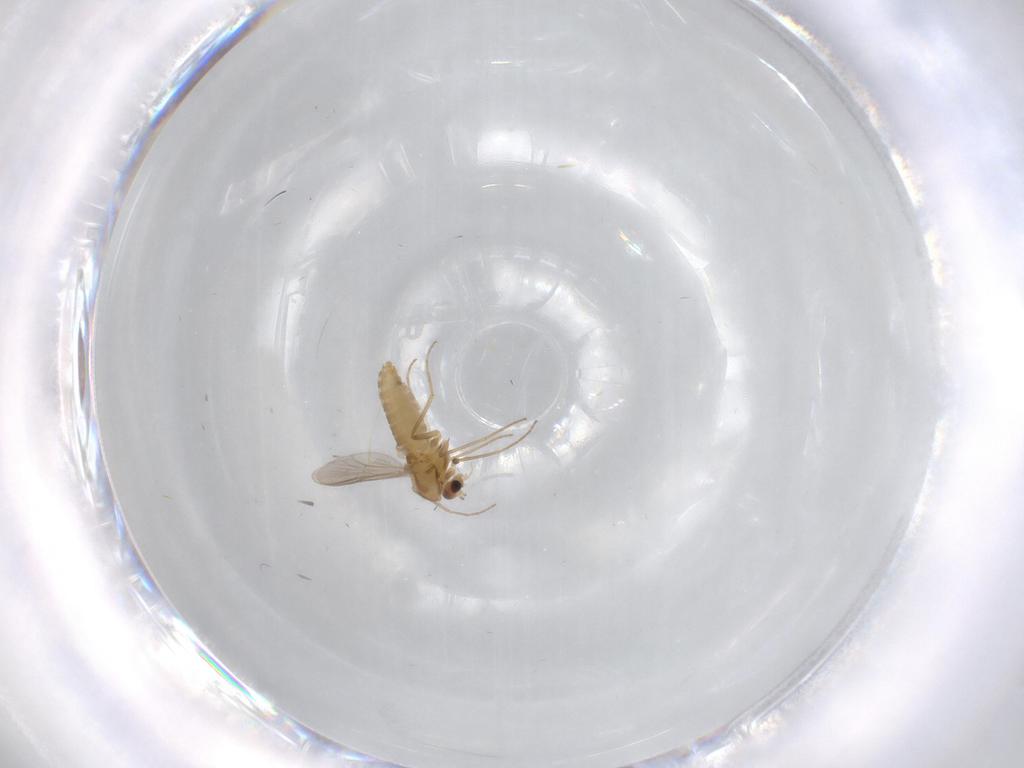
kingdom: Animalia
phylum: Arthropoda
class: Insecta
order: Diptera
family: Chironomidae
